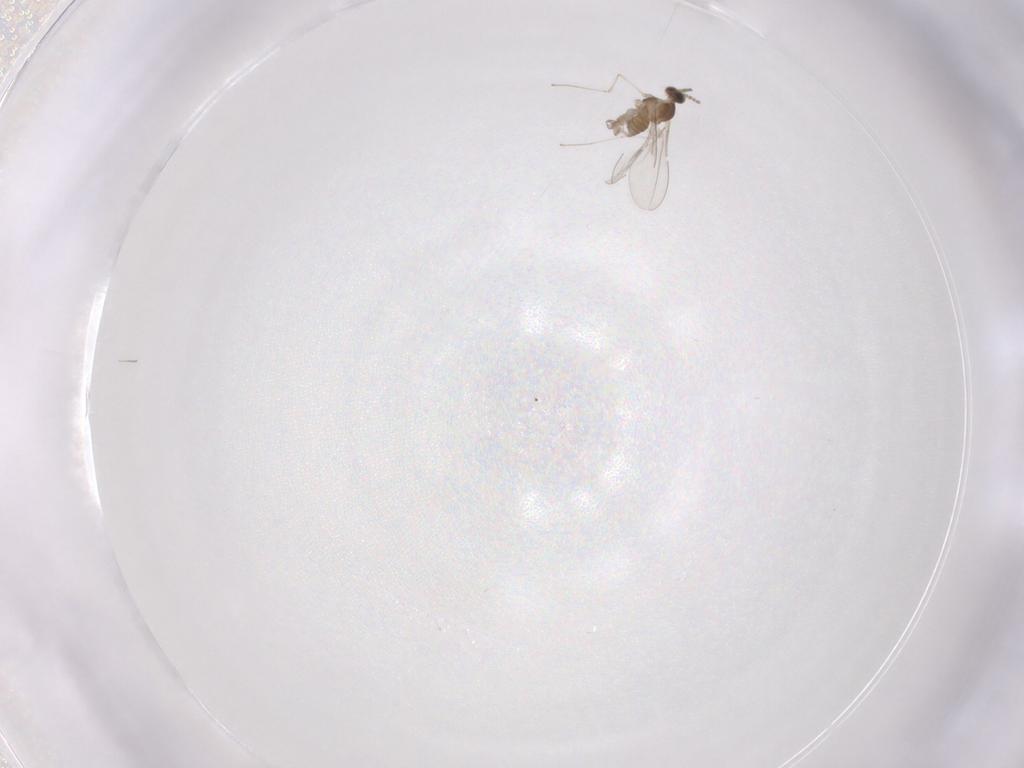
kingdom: Animalia
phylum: Arthropoda
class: Insecta
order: Diptera
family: Cecidomyiidae
